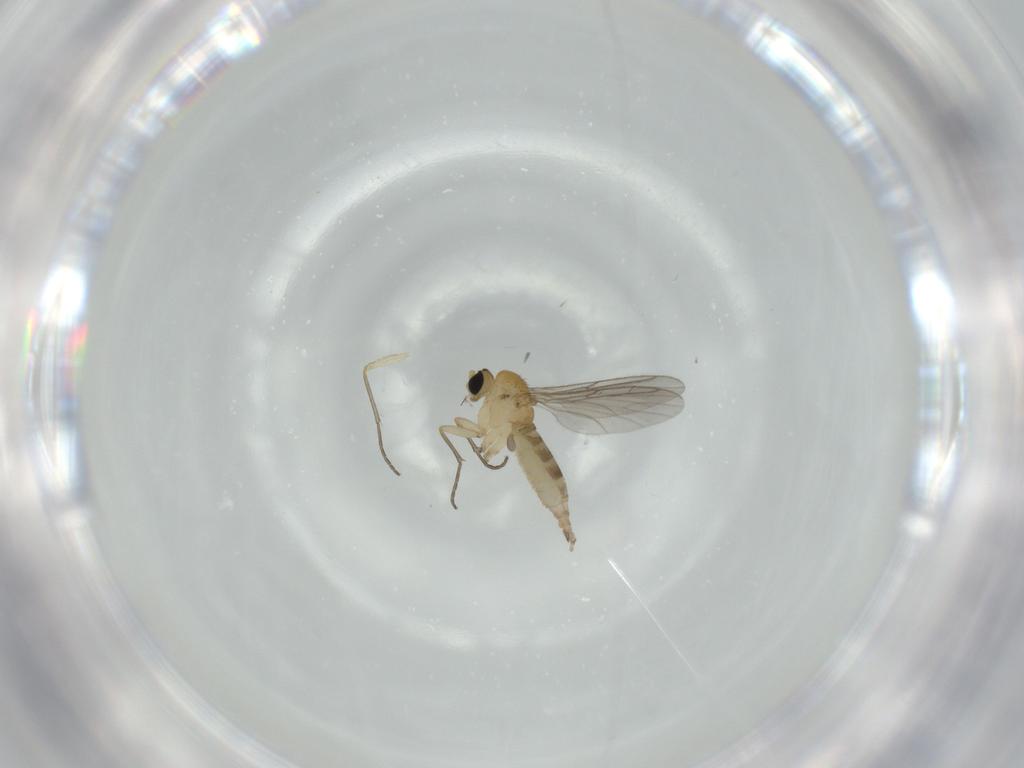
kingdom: Animalia
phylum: Arthropoda
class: Insecta
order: Diptera
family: Sciaridae
